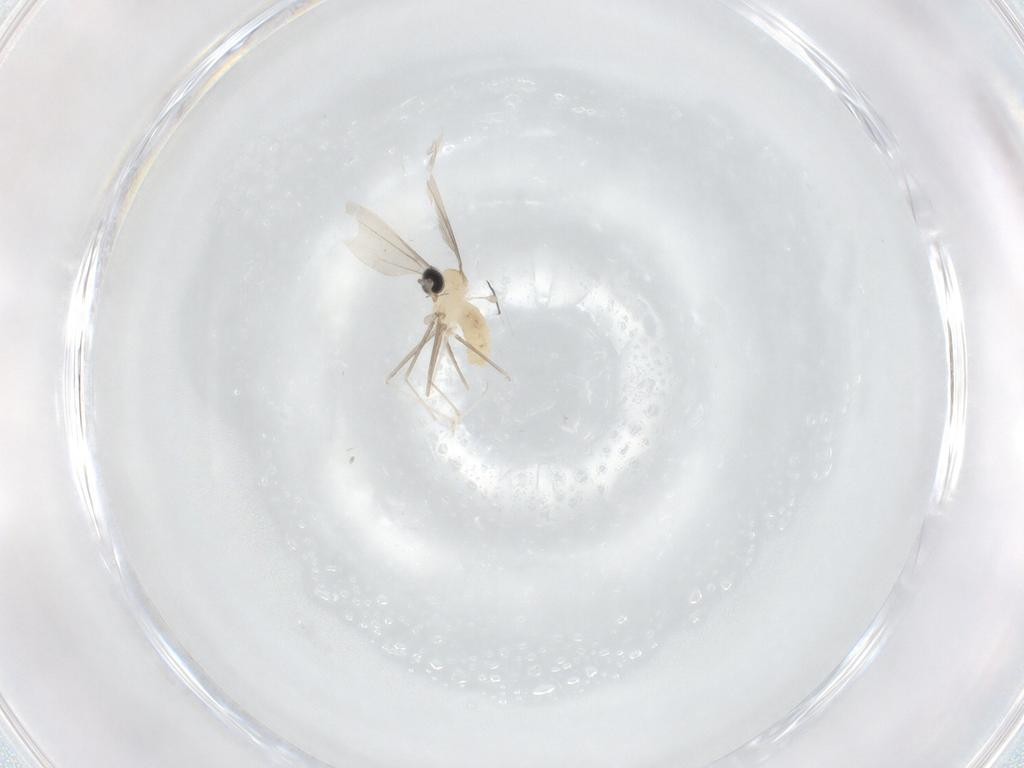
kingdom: Animalia
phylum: Arthropoda
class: Insecta
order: Diptera
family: Cecidomyiidae
